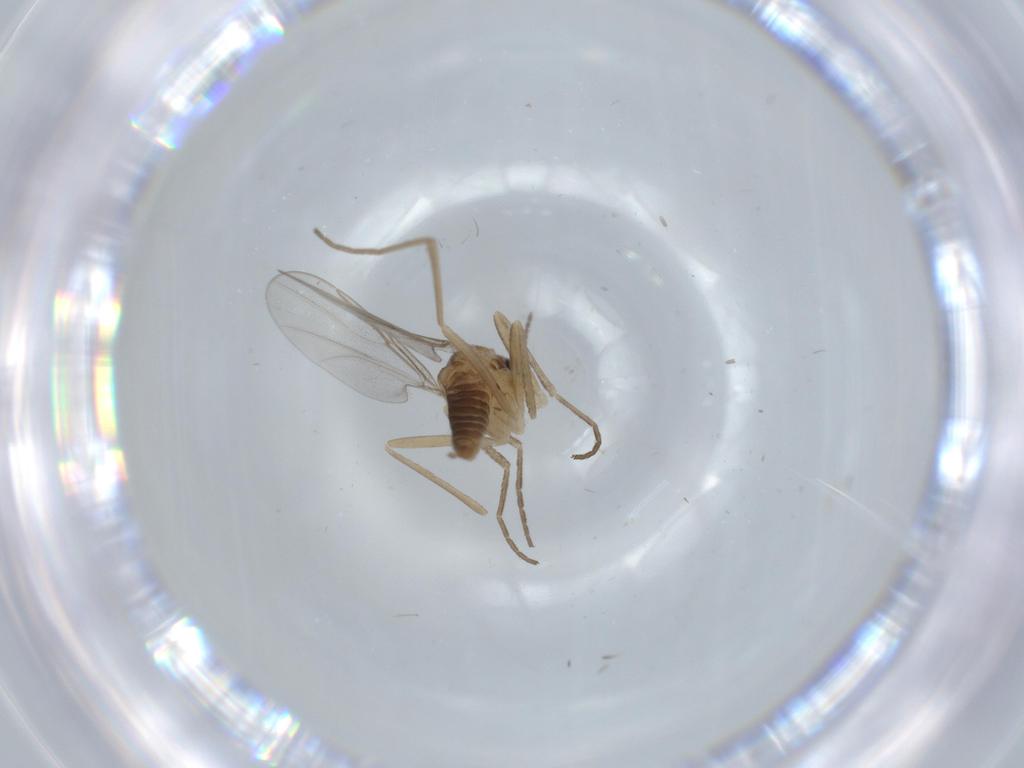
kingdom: Animalia
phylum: Arthropoda
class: Insecta
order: Diptera
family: Cecidomyiidae
